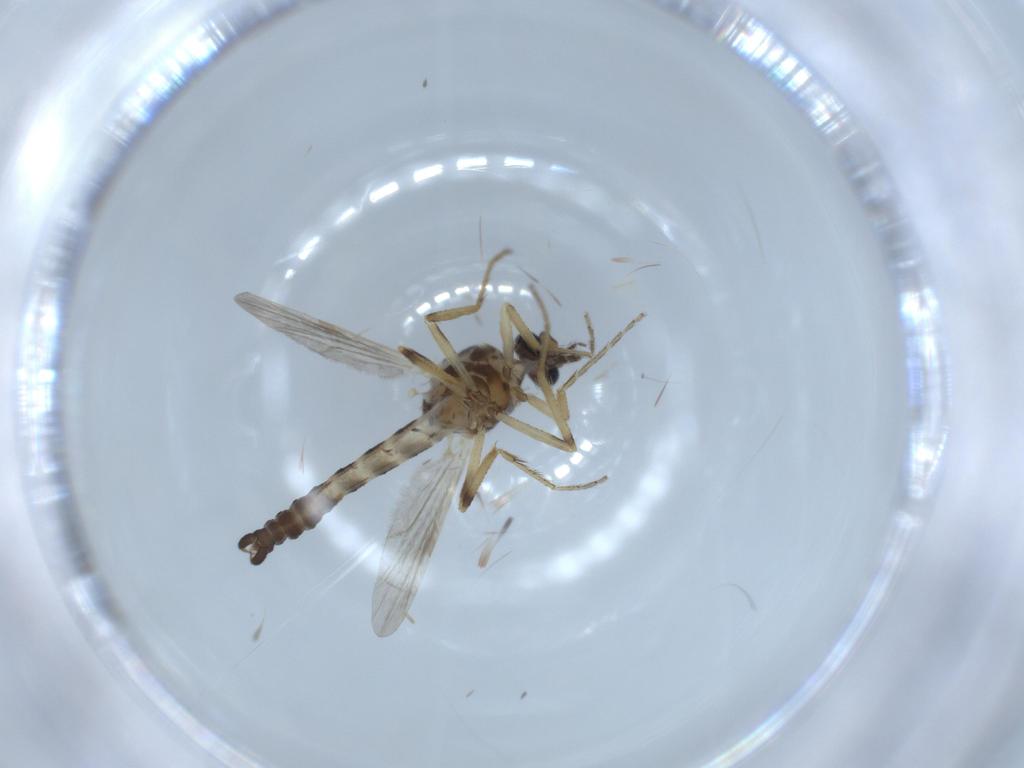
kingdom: Animalia
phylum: Arthropoda
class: Insecta
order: Diptera
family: Ceratopogonidae
